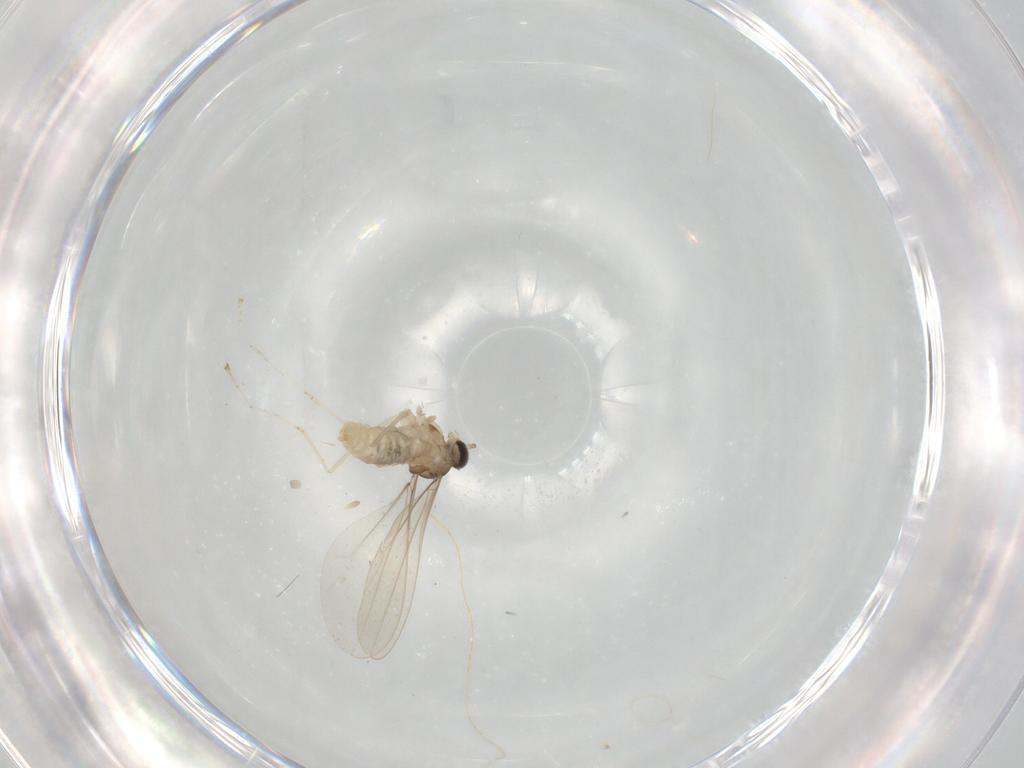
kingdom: Animalia
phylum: Arthropoda
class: Insecta
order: Diptera
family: Cecidomyiidae
